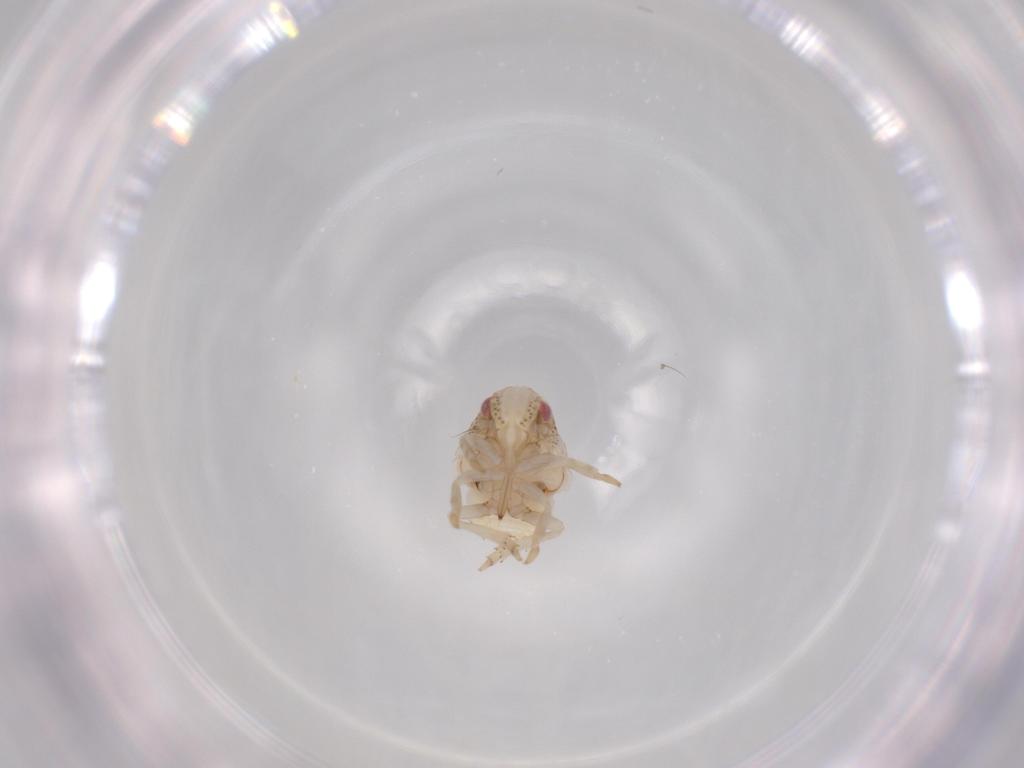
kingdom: Animalia
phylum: Arthropoda
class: Insecta
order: Hemiptera
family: Acanaloniidae
